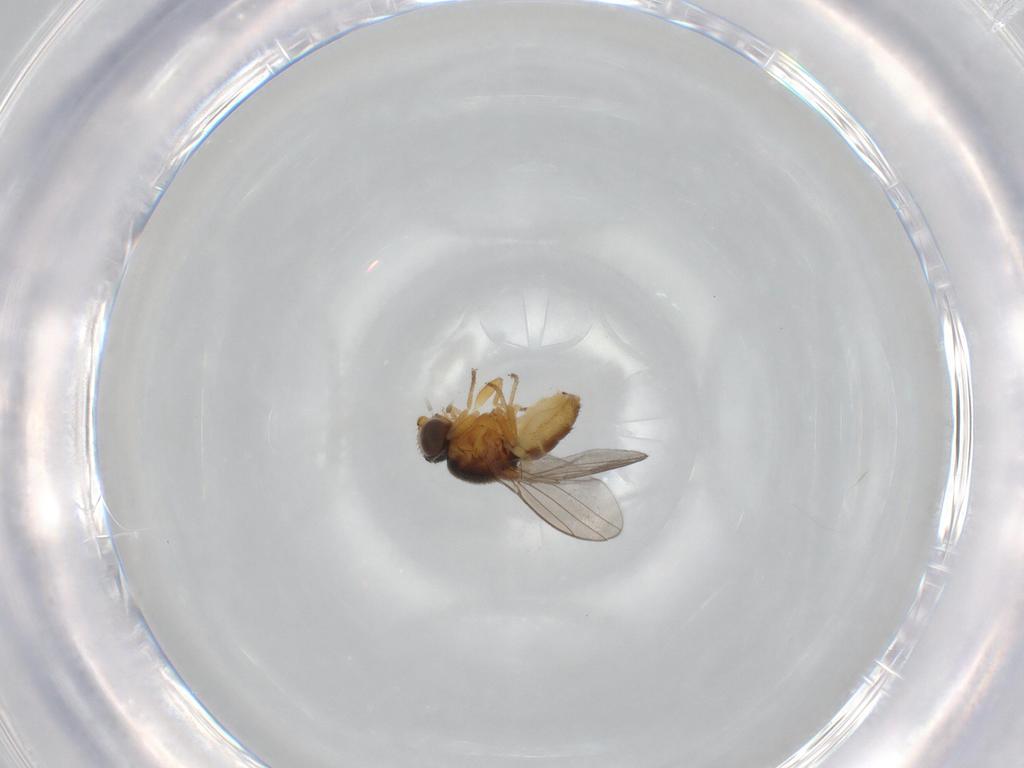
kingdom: Animalia
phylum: Arthropoda
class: Insecta
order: Diptera
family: Chloropidae
